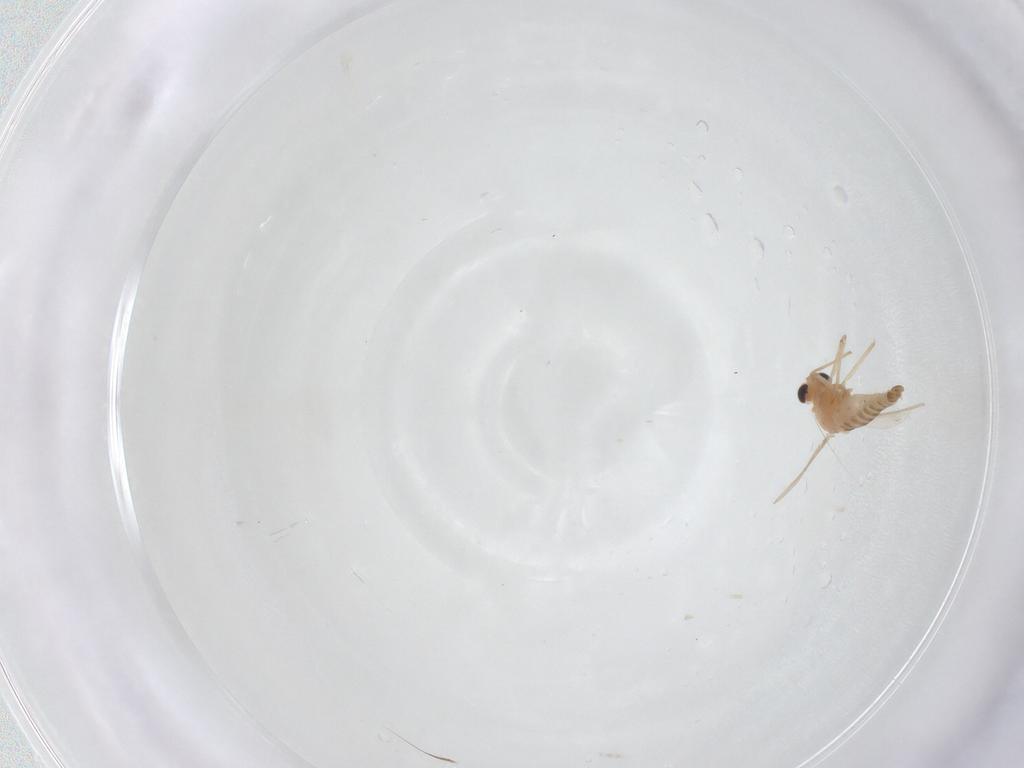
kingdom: Animalia
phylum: Arthropoda
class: Insecta
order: Diptera
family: Chironomidae
